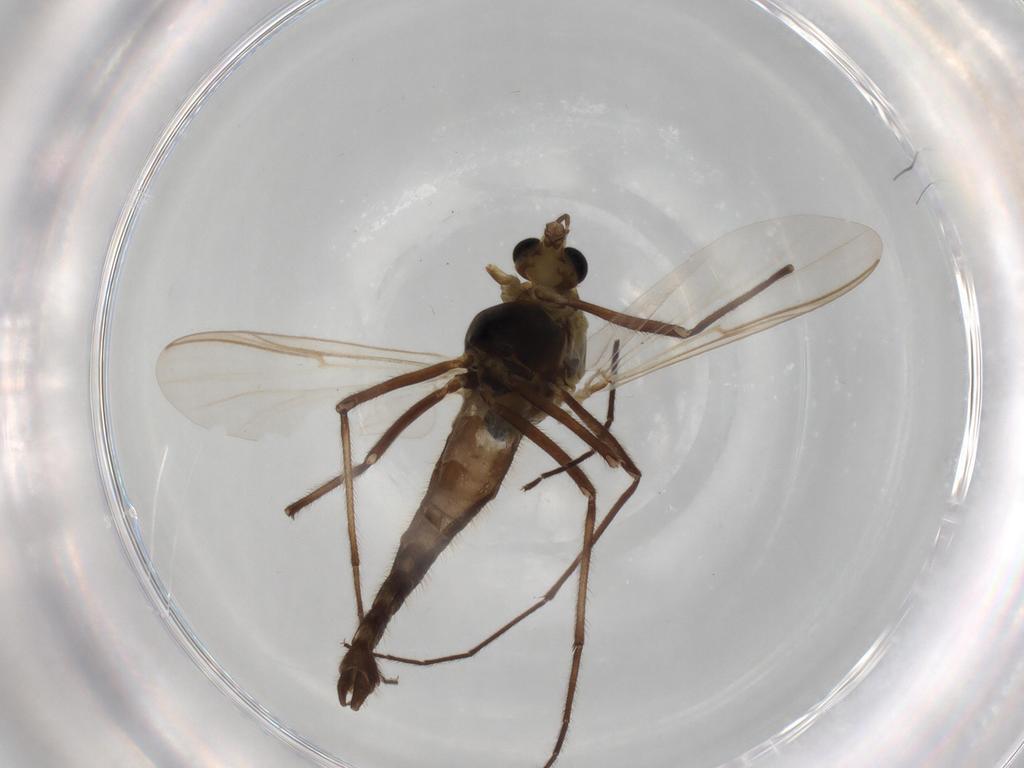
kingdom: Animalia
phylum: Arthropoda
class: Insecta
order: Diptera
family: Muscidae
